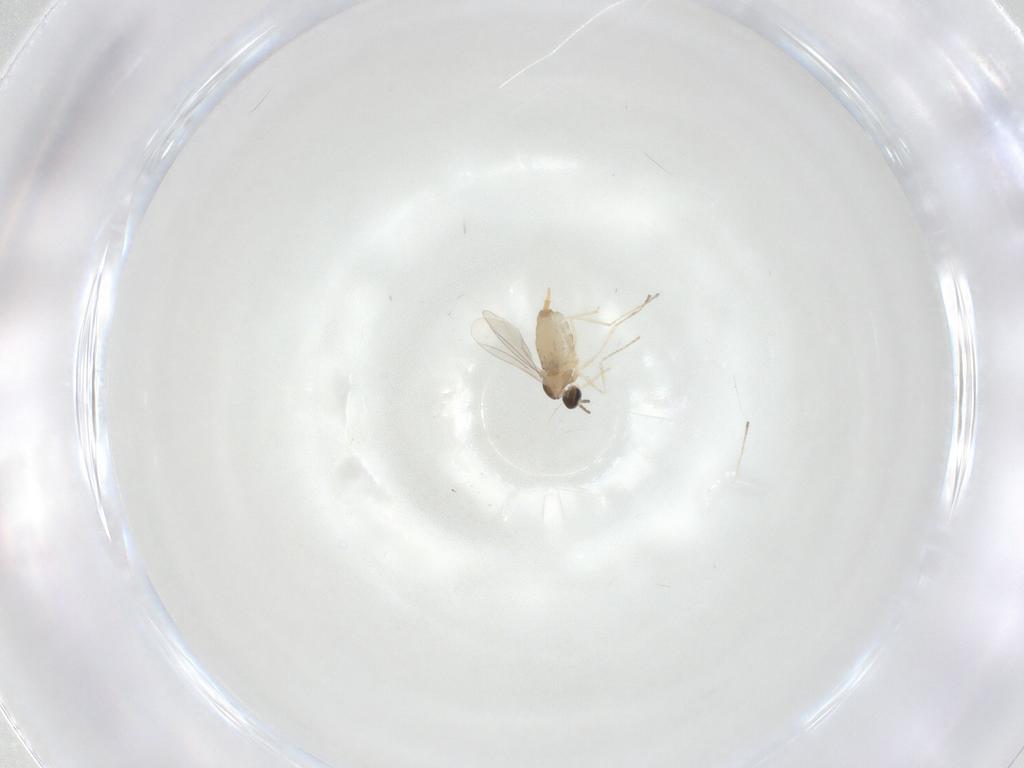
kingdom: Animalia
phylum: Arthropoda
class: Insecta
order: Diptera
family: Cecidomyiidae
